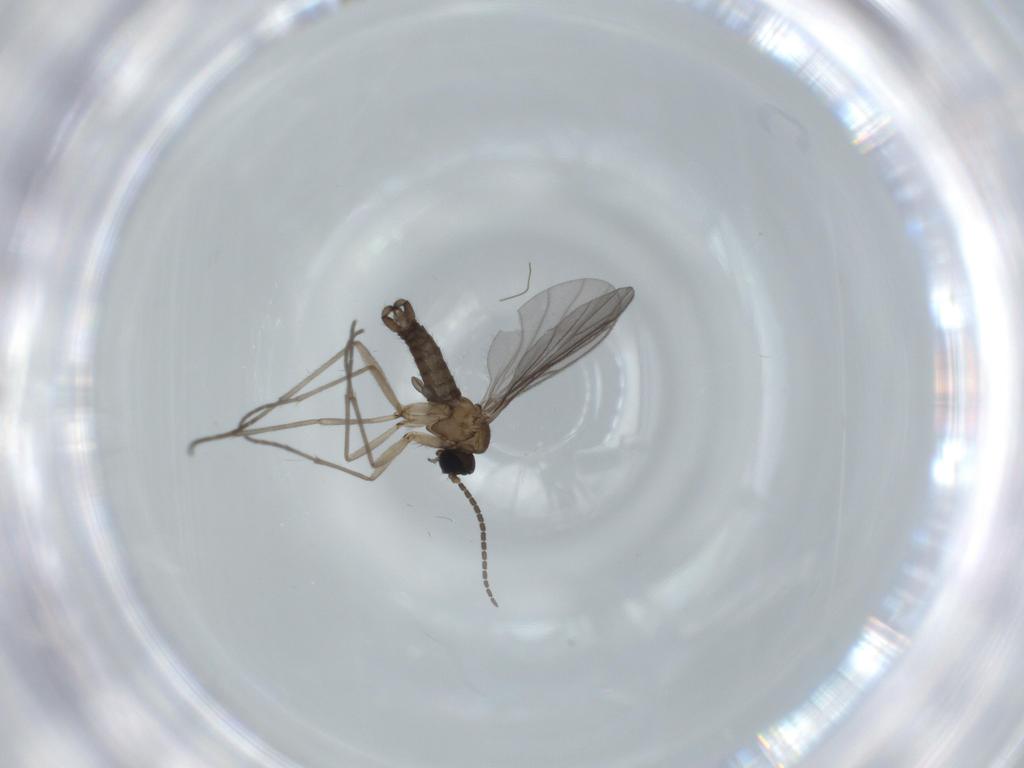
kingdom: Animalia
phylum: Arthropoda
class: Insecta
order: Diptera
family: Sciaridae
